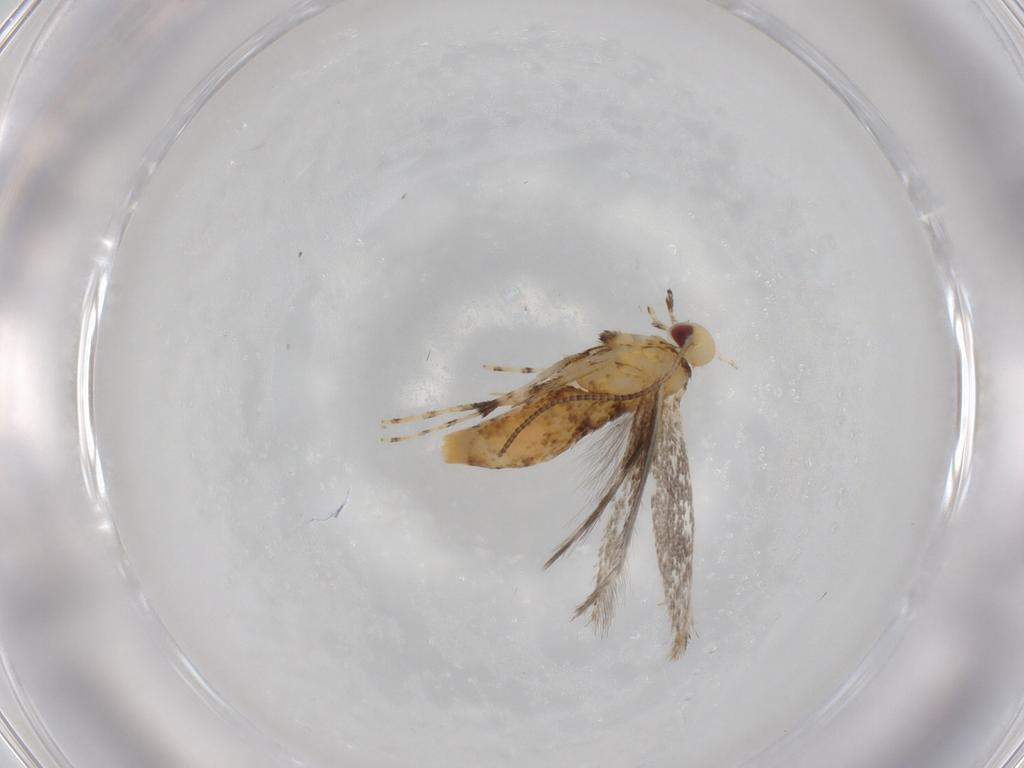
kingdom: Animalia
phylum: Arthropoda
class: Insecta
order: Lepidoptera
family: Gracillariidae
